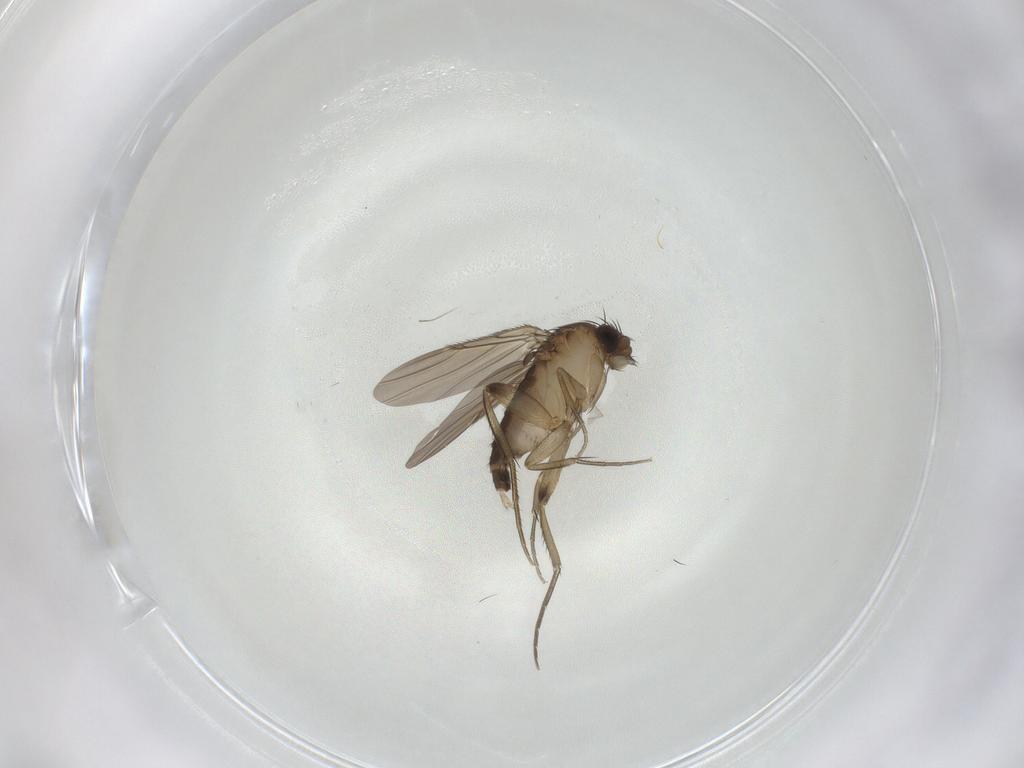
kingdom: Animalia
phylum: Arthropoda
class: Insecta
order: Diptera
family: Phoridae
